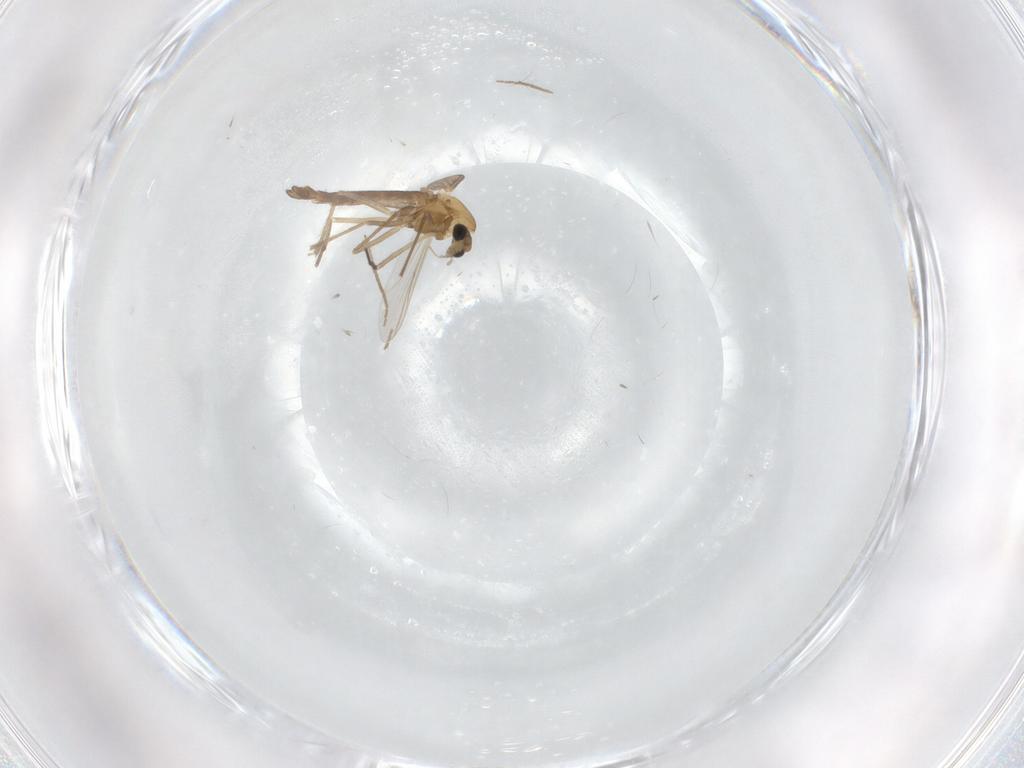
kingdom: Animalia
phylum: Arthropoda
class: Insecta
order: Diptera
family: Chironomidae
